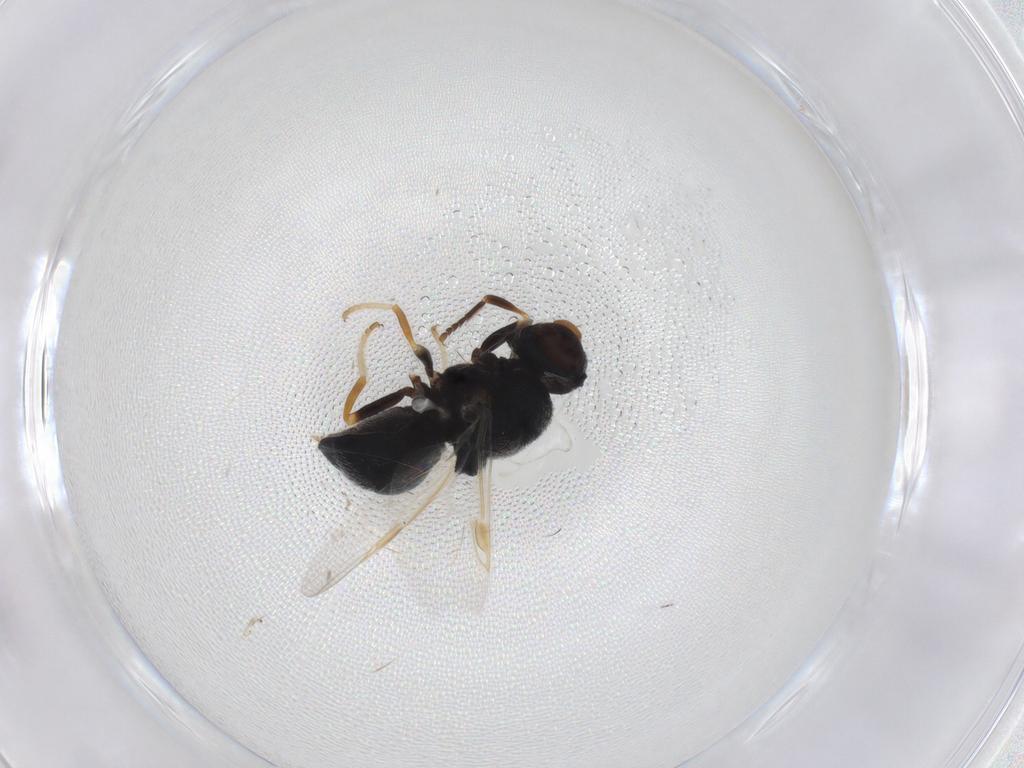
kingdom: Animalia
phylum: Arthropoda
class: Insecta
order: Diptera
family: Stratiomyidae
